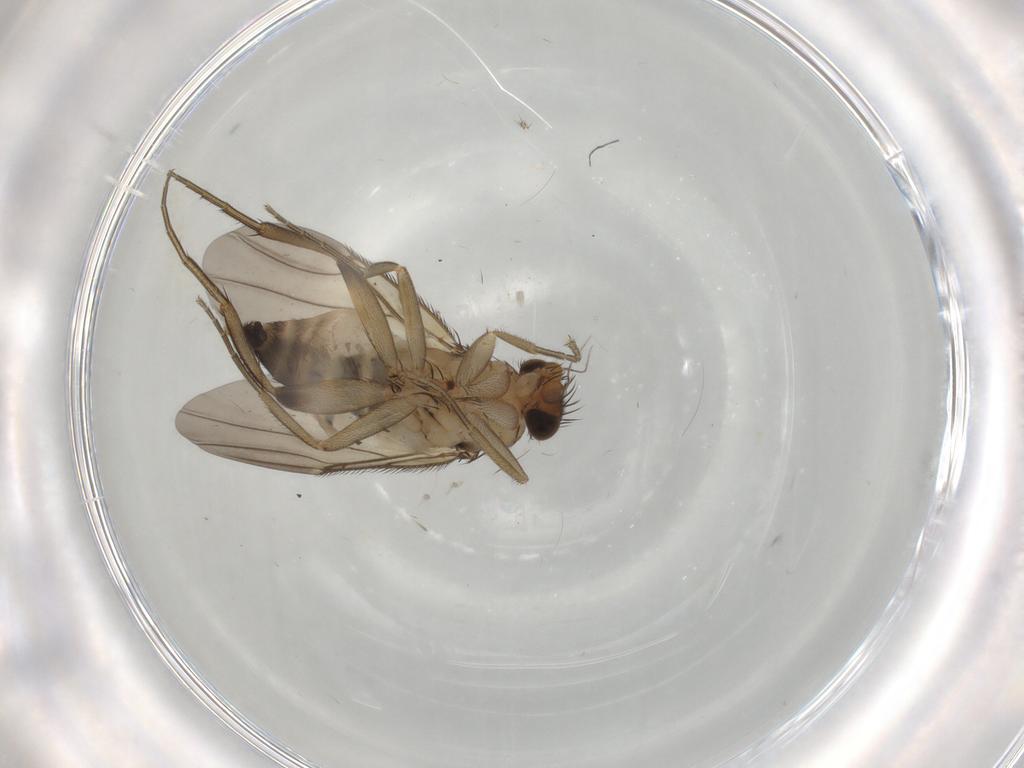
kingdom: Animalia
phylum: Arthropoda
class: Insecta
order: Diptera
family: Phoridae
